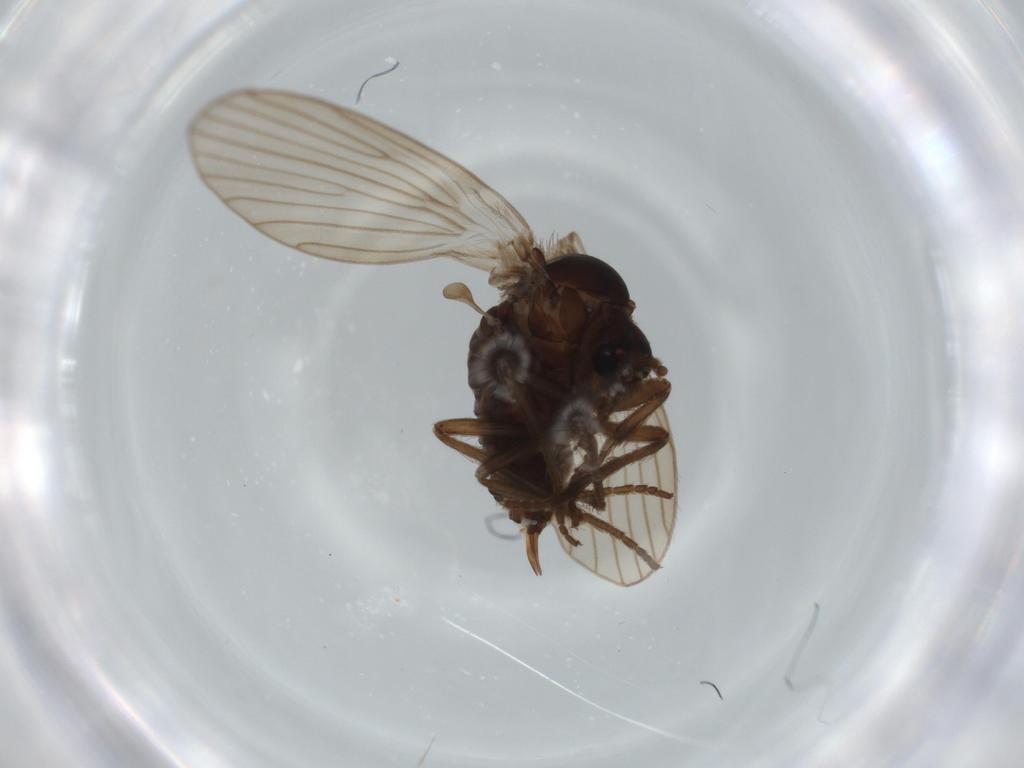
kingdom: Animalia
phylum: Arthropoda
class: Insecta
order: Diptera
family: Psychodidae
